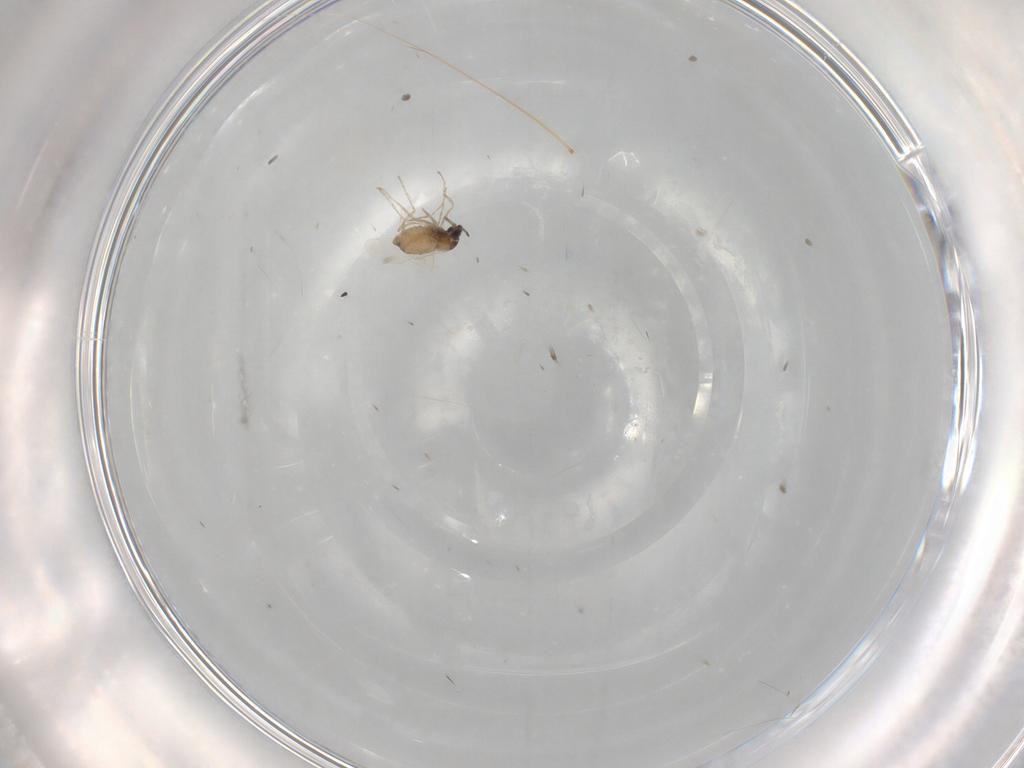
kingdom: Animalia
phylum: Arthropoda
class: Insecta
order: Diptera
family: Cecidomyiidae
